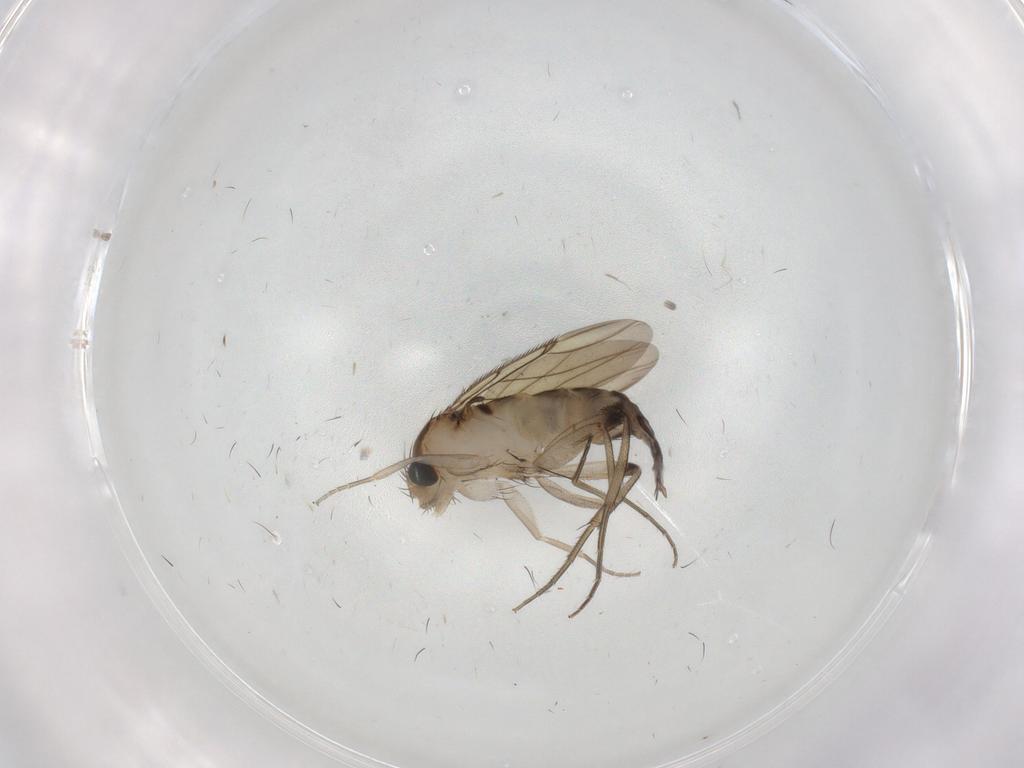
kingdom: Animalia
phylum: Arthropoda
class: Insecta
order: Diptera
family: Phoridae
